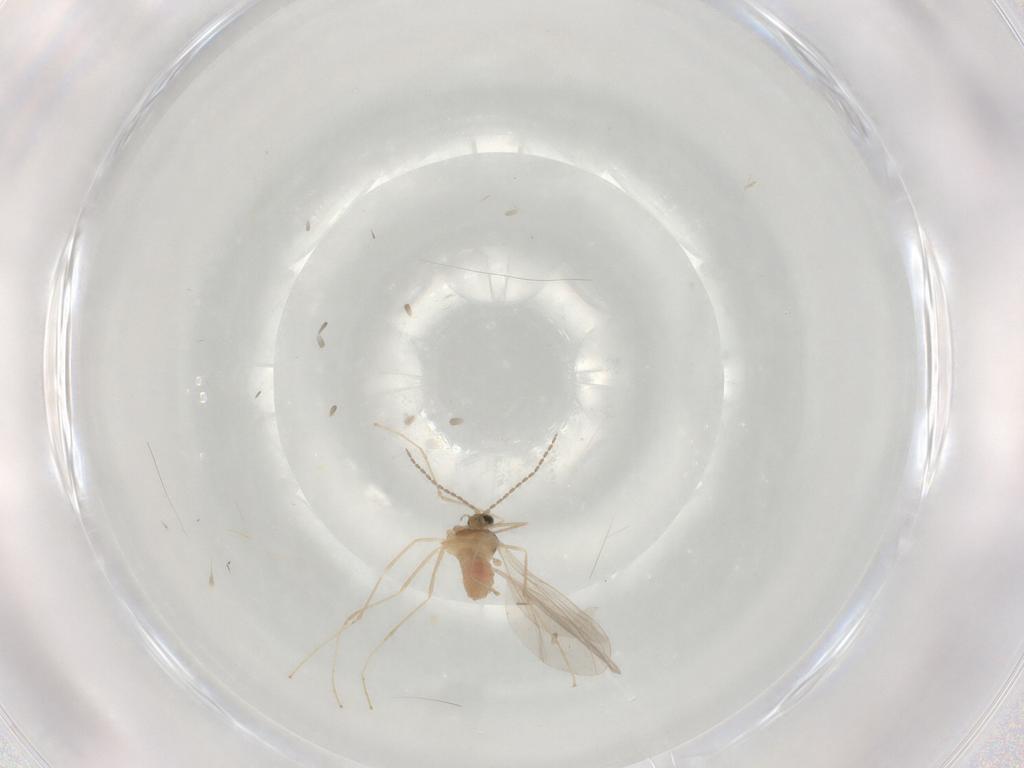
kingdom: Animalia
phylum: Arthropoda
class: Insecta
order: Diptera
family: Cecidomyiidae
